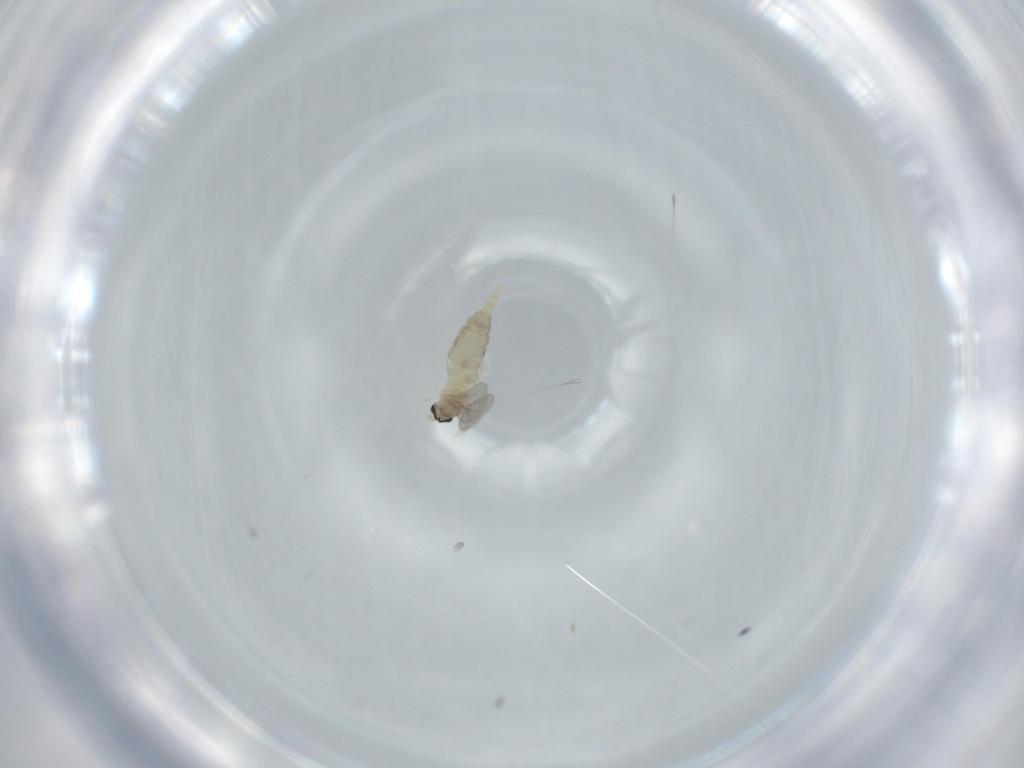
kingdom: Animalia
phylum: Arthropoda
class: Insecta
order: Diptera
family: Cecidomyiidae
